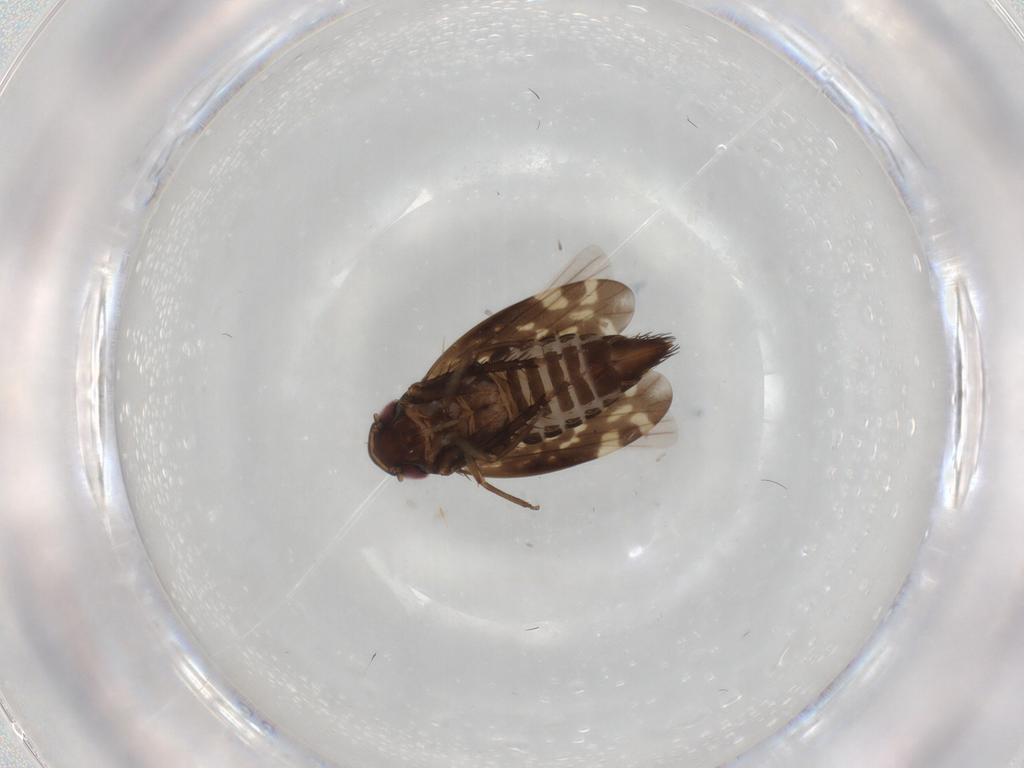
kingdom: Animalia
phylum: Arthropoda
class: Insecta
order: Hemiptera
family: Cicadellidae
